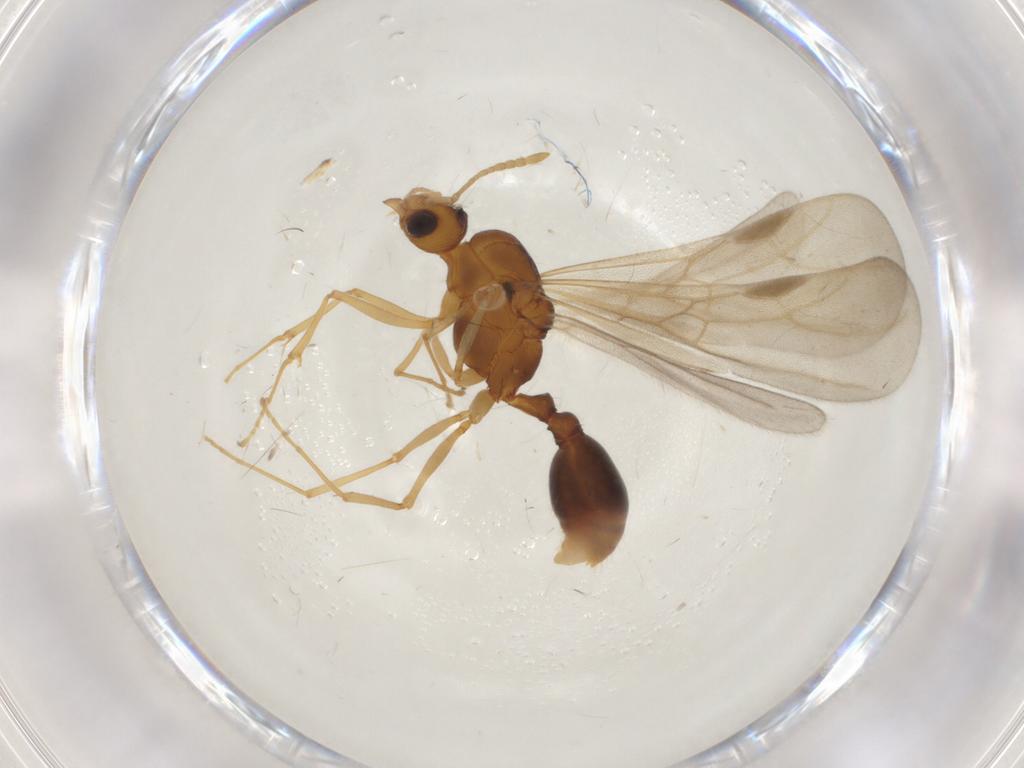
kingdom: Animalia
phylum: Arthropoda
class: Insecta
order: Hymenoptera
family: Formicidae
